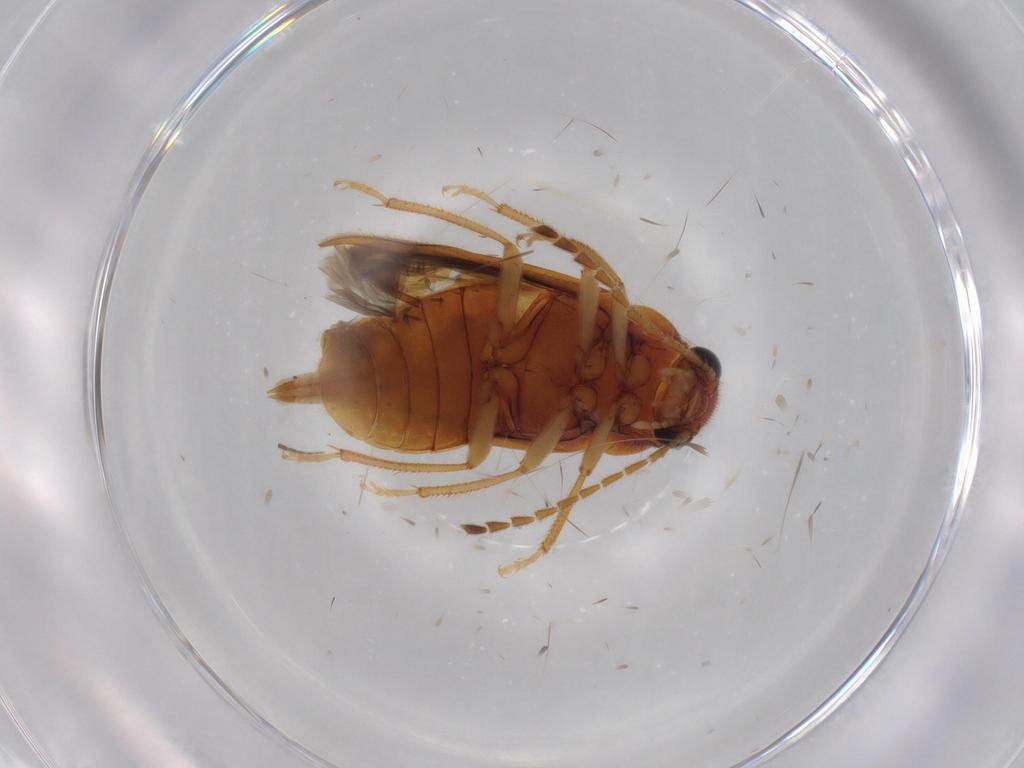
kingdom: Animalia
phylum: Arthropoda
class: Insecta
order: Coleoptera
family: Ptilodactylidae
